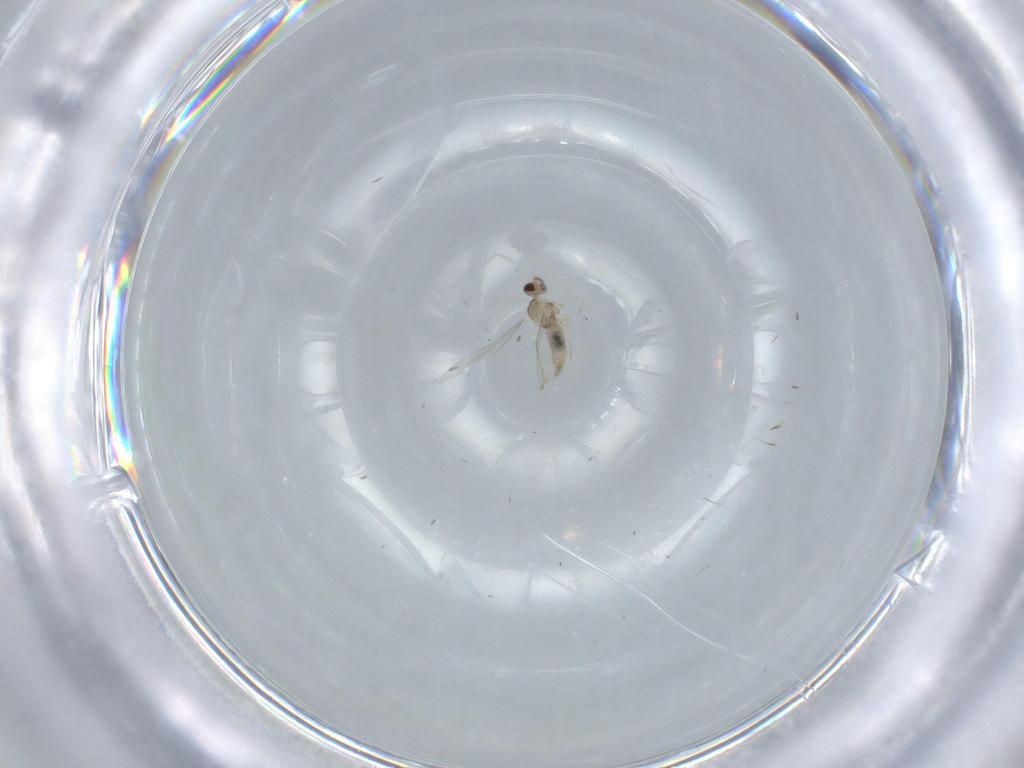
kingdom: Animalia
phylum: Arthropoda
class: Insecta
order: Diptera
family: Cecidomyiidae
